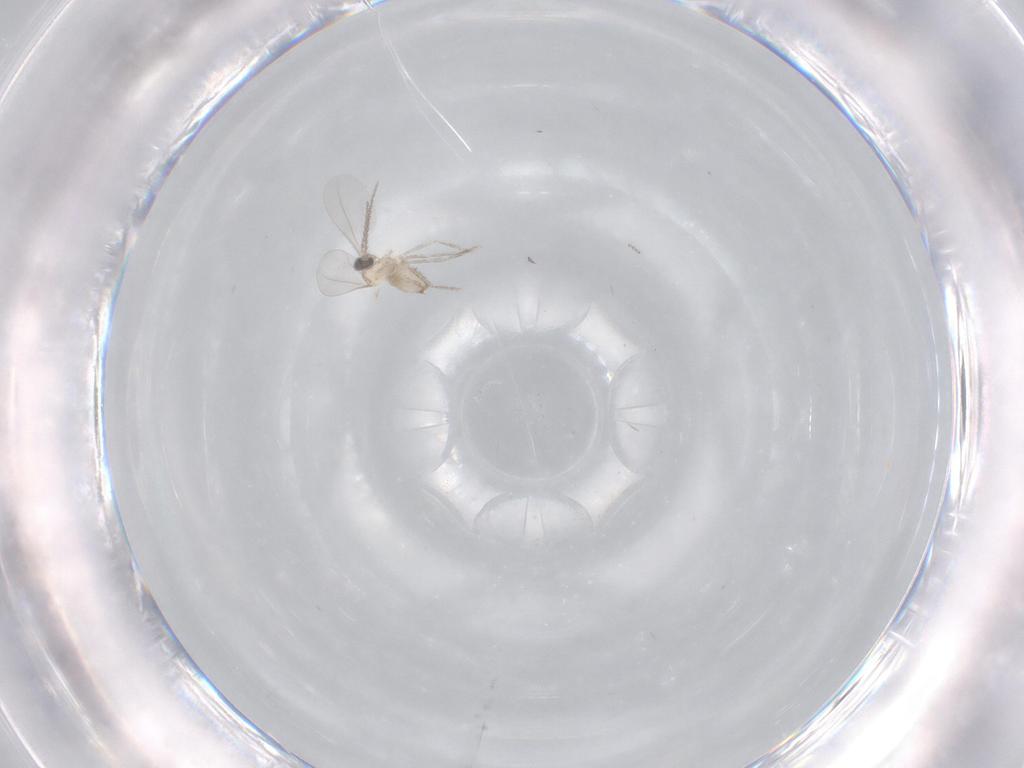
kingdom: Animalia
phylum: Arthropoda
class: Insecta
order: Diptera
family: Cecidomyiidae
